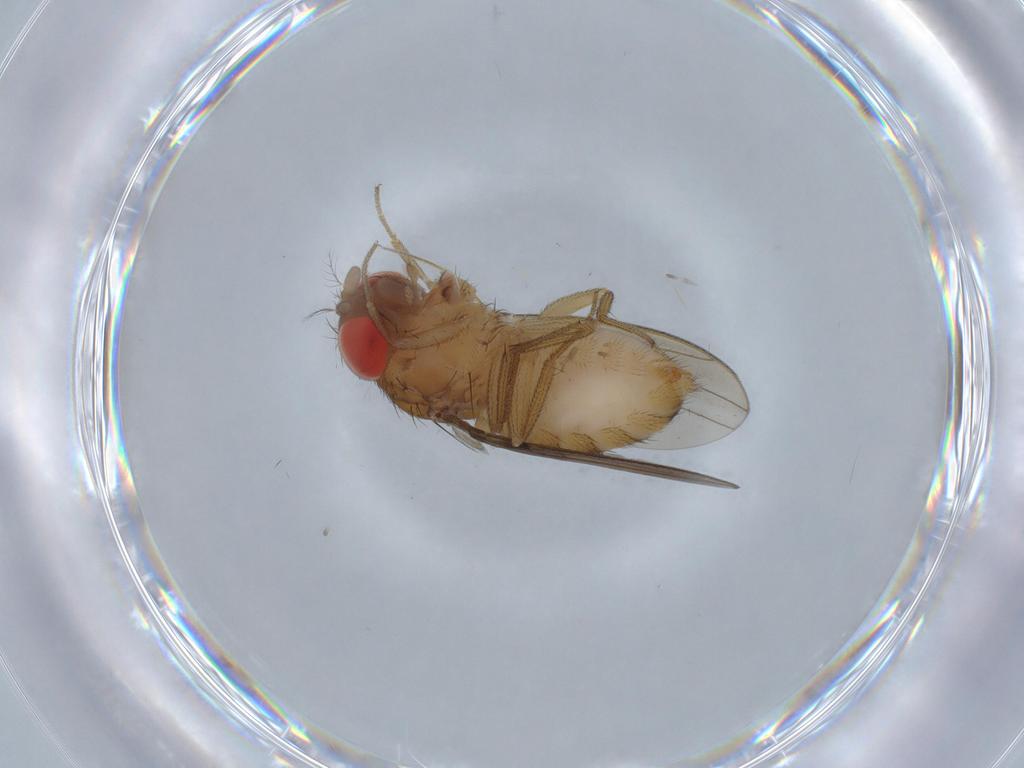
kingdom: Animalia
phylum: Arthropoda
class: Insecta
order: Diptera
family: Drosophilidae
